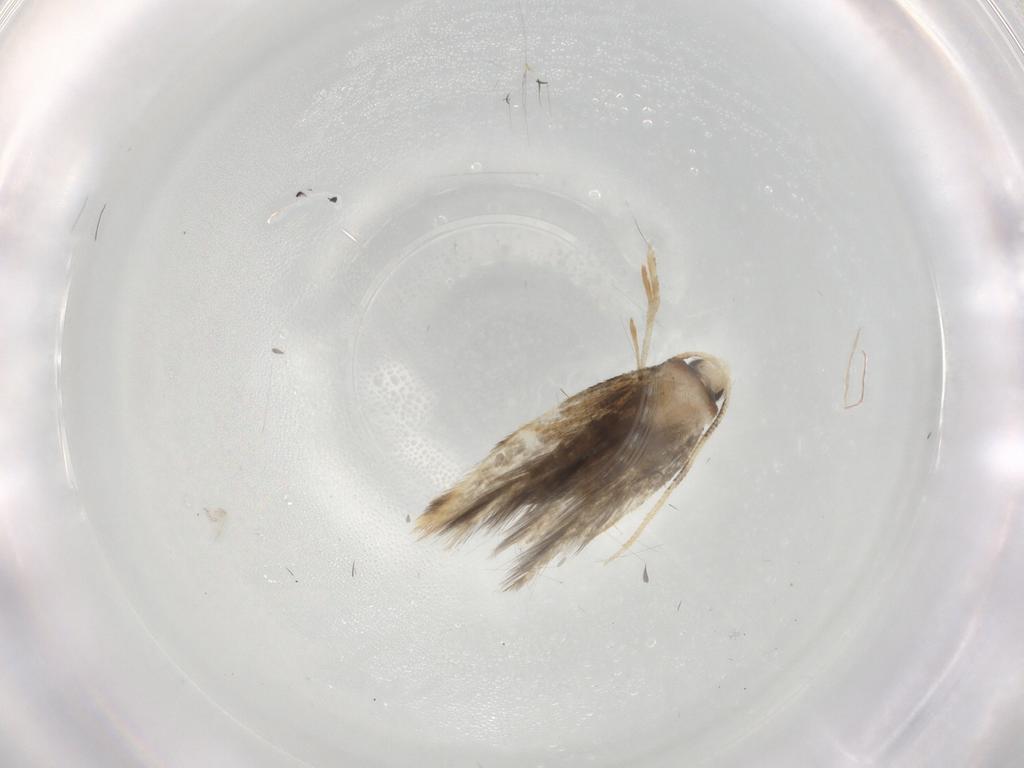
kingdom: Animalia
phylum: Arthropoda
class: Insecta
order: Lepidoptera
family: Tineidae
